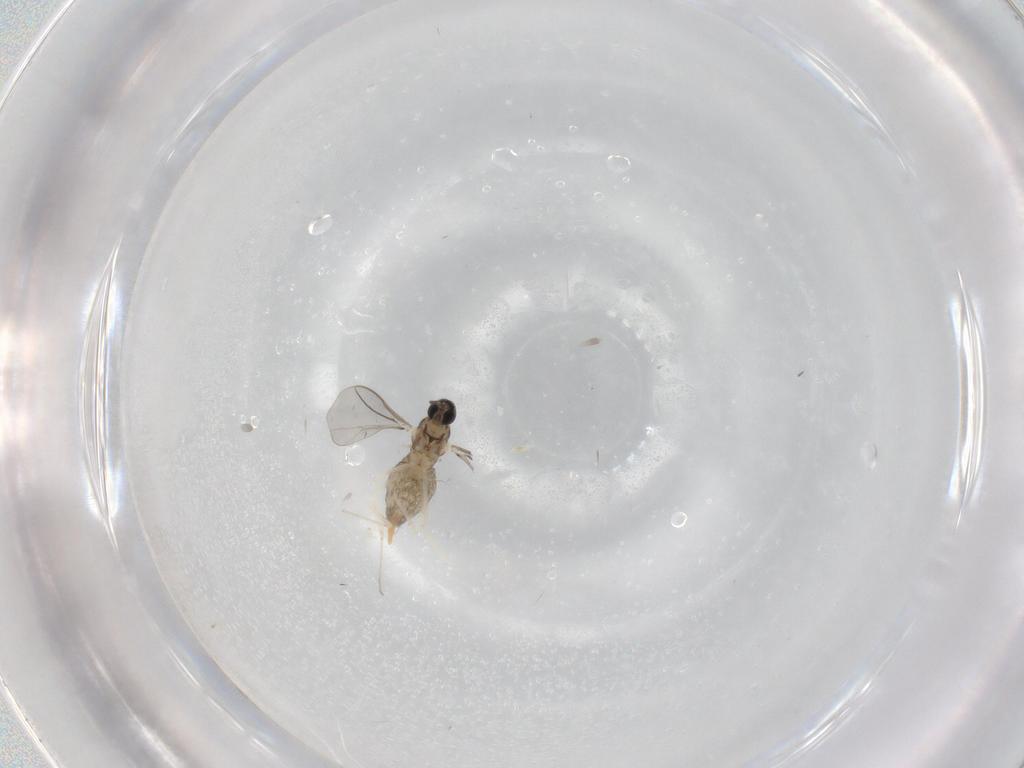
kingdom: Animalia
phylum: Arthropoda
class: Insecta
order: Diptera
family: Cecidomyiidae
